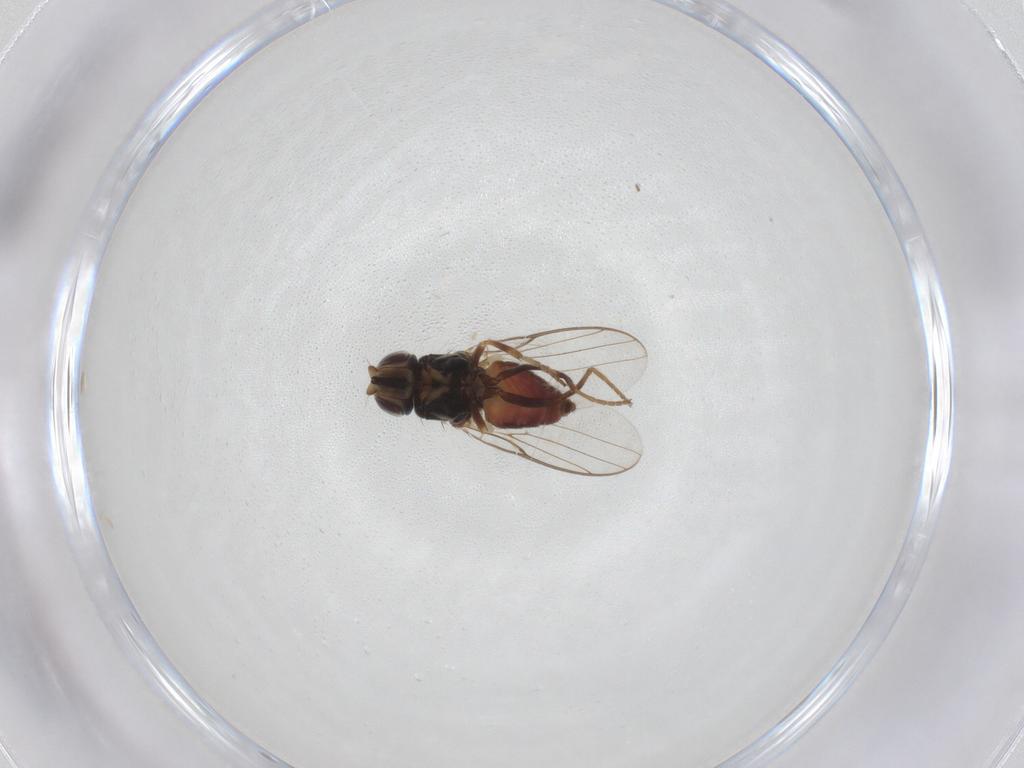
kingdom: Animalia
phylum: Arthropoda
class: Insecta
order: Diptera
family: Chloropidae
